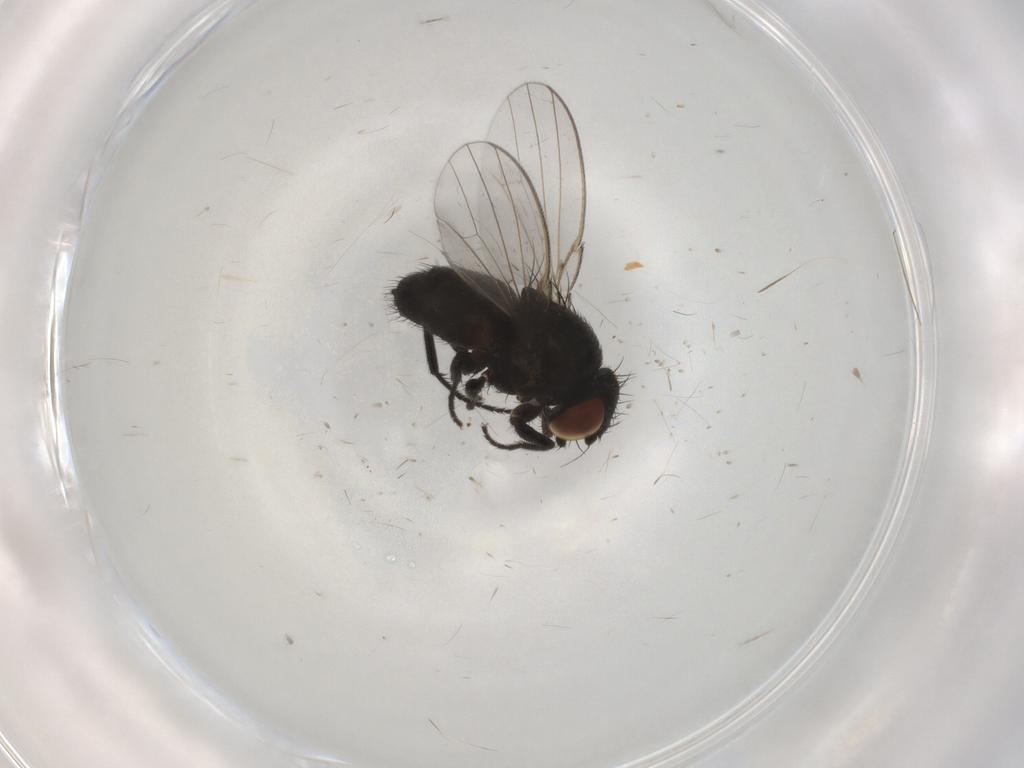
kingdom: Animalia
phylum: Arthropoda
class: Insecta
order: Diptera
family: Milichiidae
